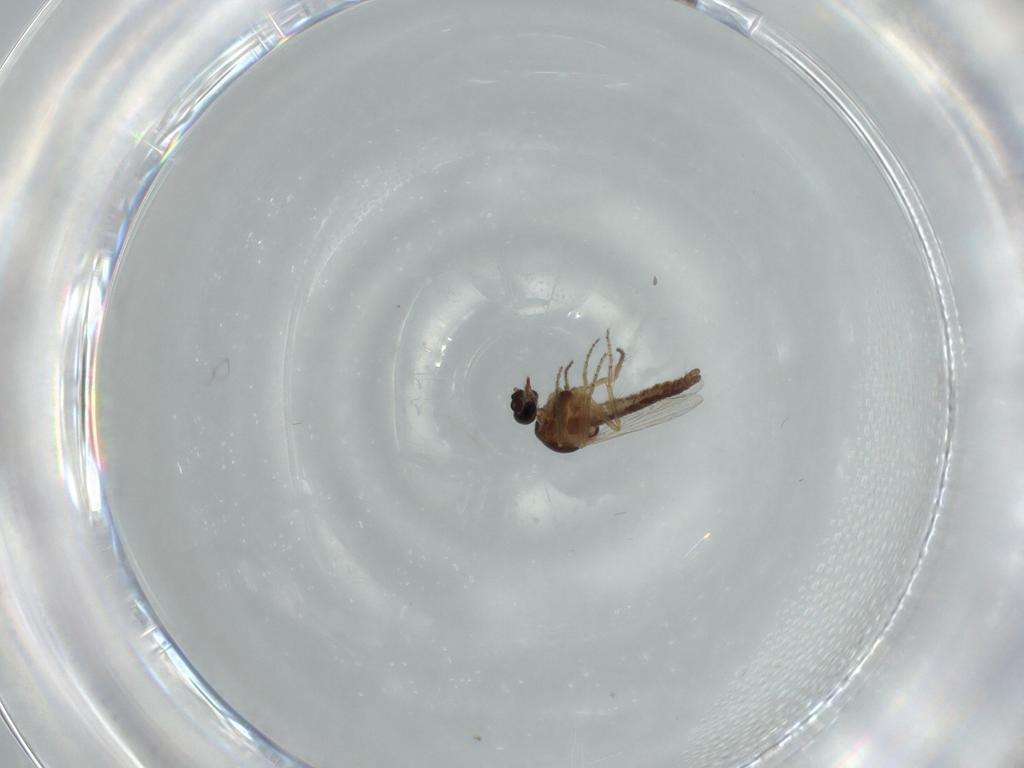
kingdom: Animalia
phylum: Arthropoda
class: Insecta
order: Diptera
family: Ceratopogonidae
